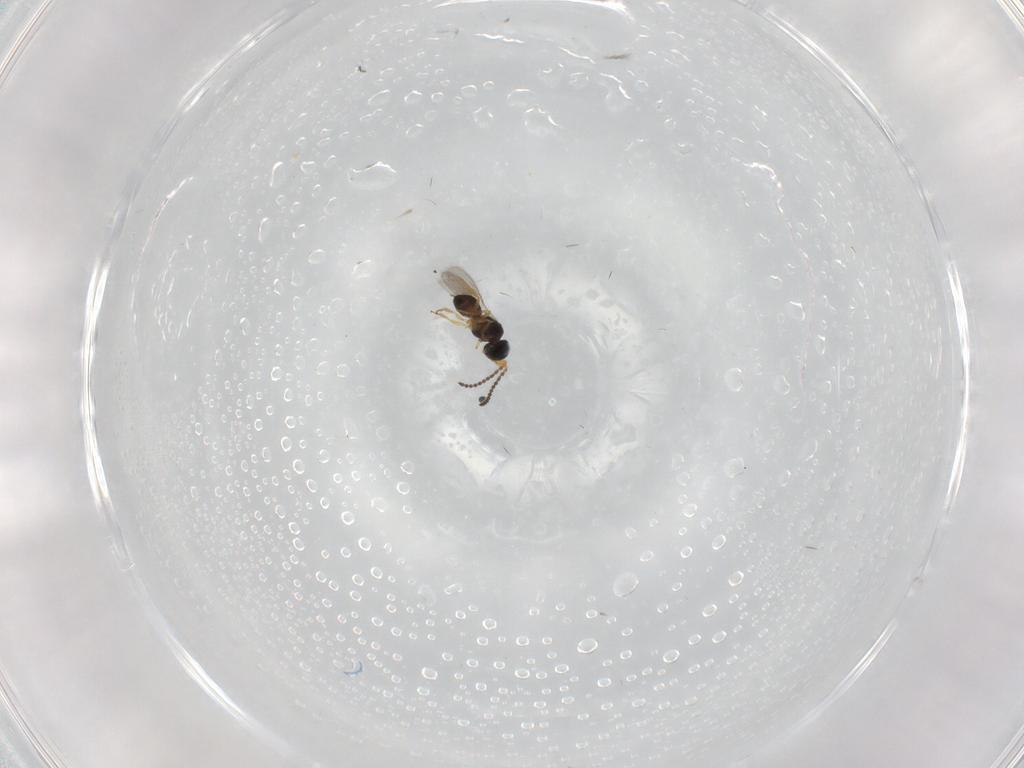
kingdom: Animalia
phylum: Arthropoda
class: Insecta
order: Hymenoptera
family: Scelionidae
